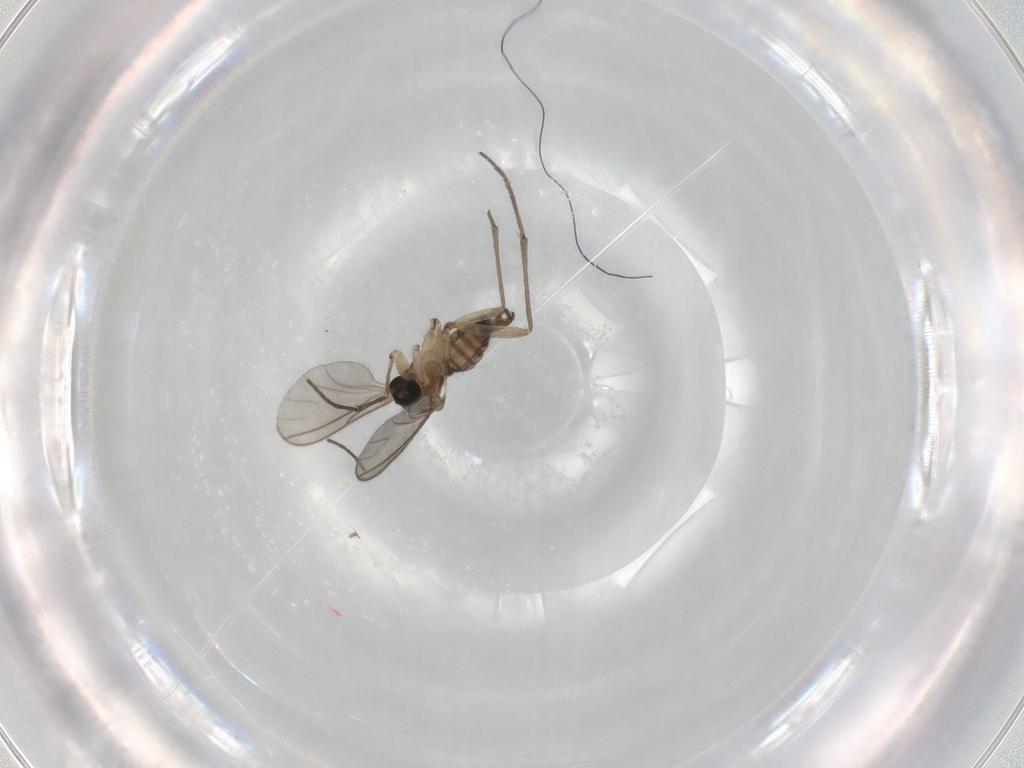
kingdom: Animalia
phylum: Arthropoda
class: Insecta
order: Diptera
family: Sciaridae
